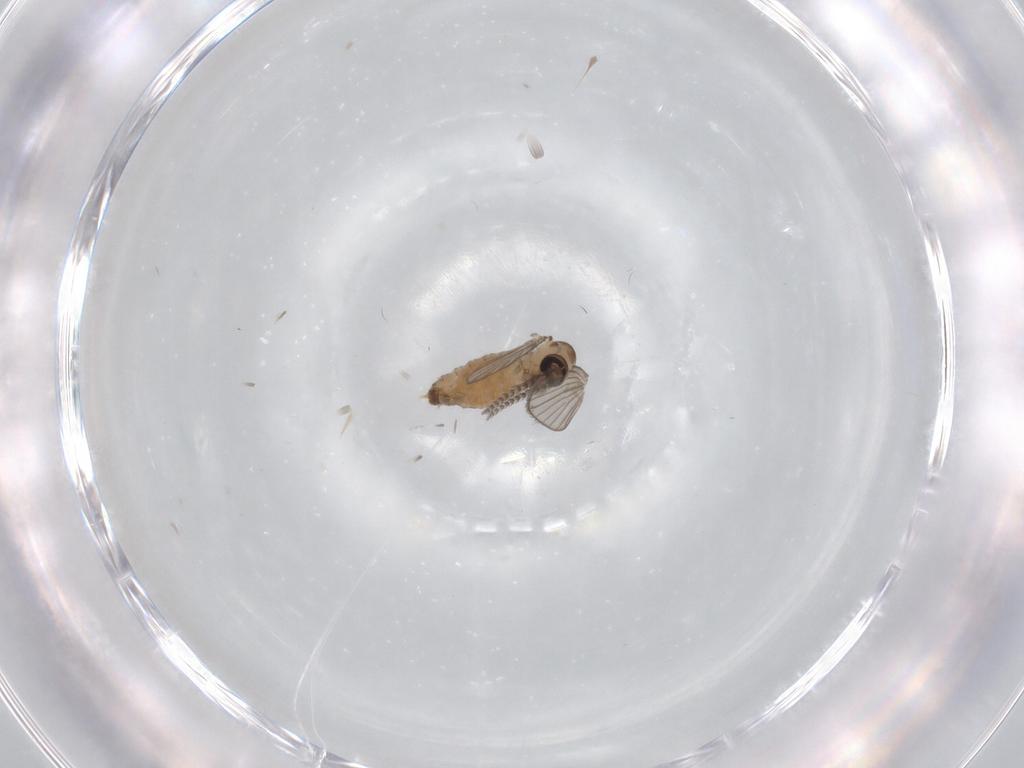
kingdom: Animalia
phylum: Arthropoda
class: Insecta
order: Diptera
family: Psychodidae
